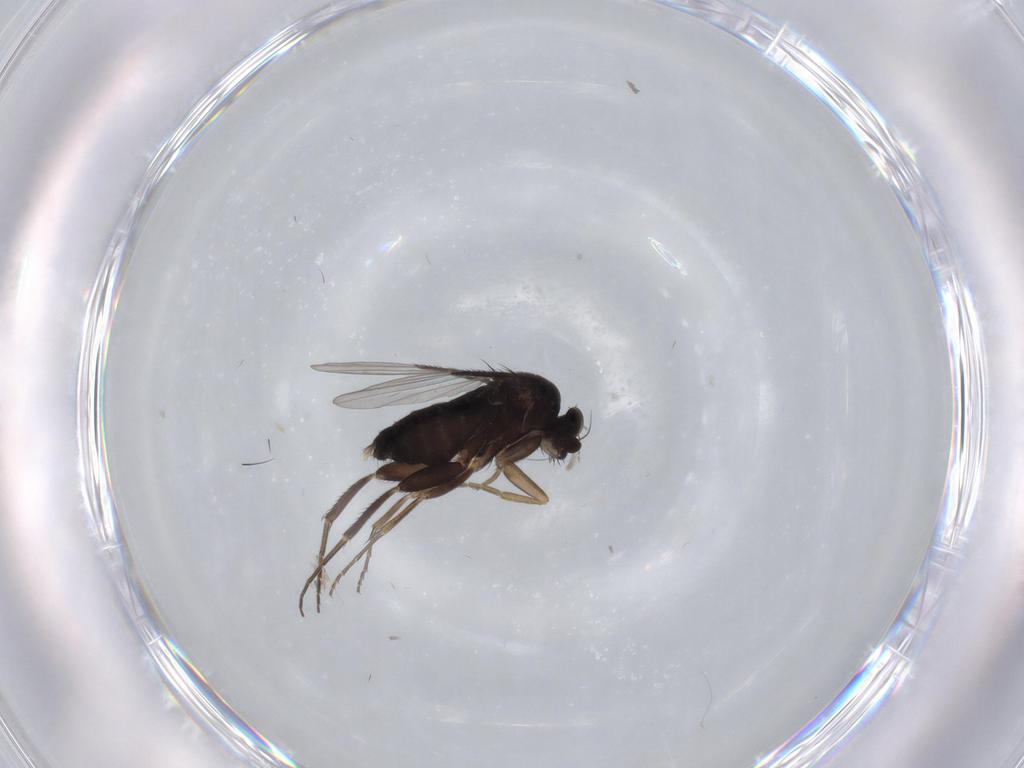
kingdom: Animalia
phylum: Arthropoda
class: Insecta
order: Diptera
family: Phoridae
